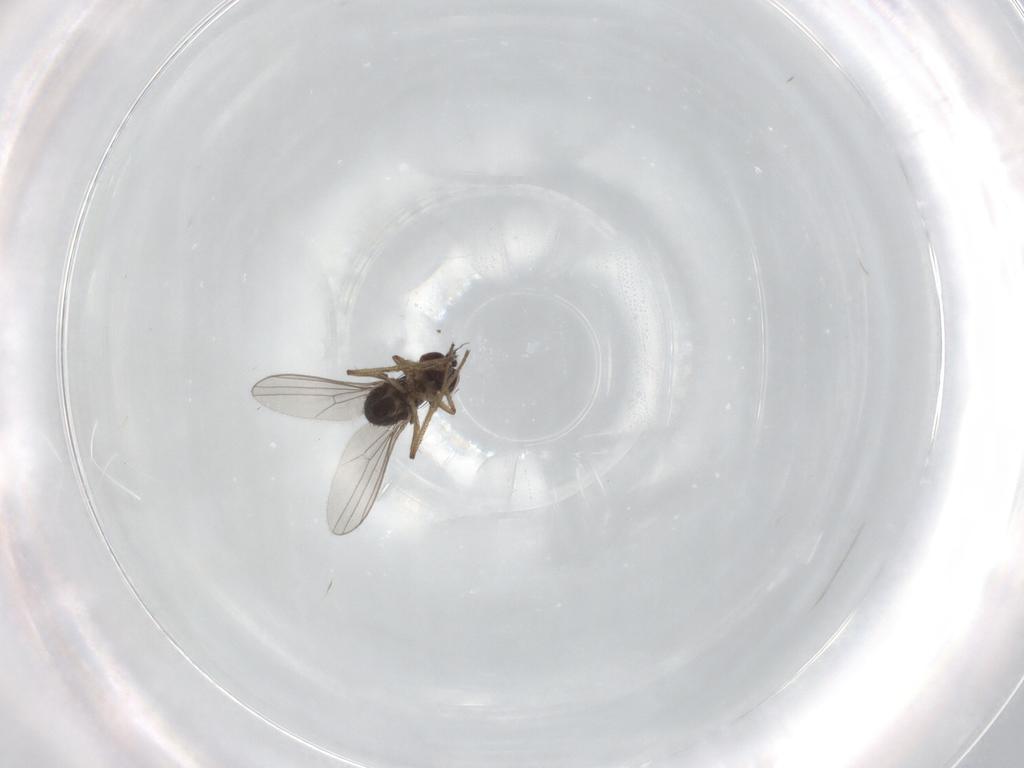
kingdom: Animalia
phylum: Arthropoda
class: Insecta
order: Diptera
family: Dolichopodidae
